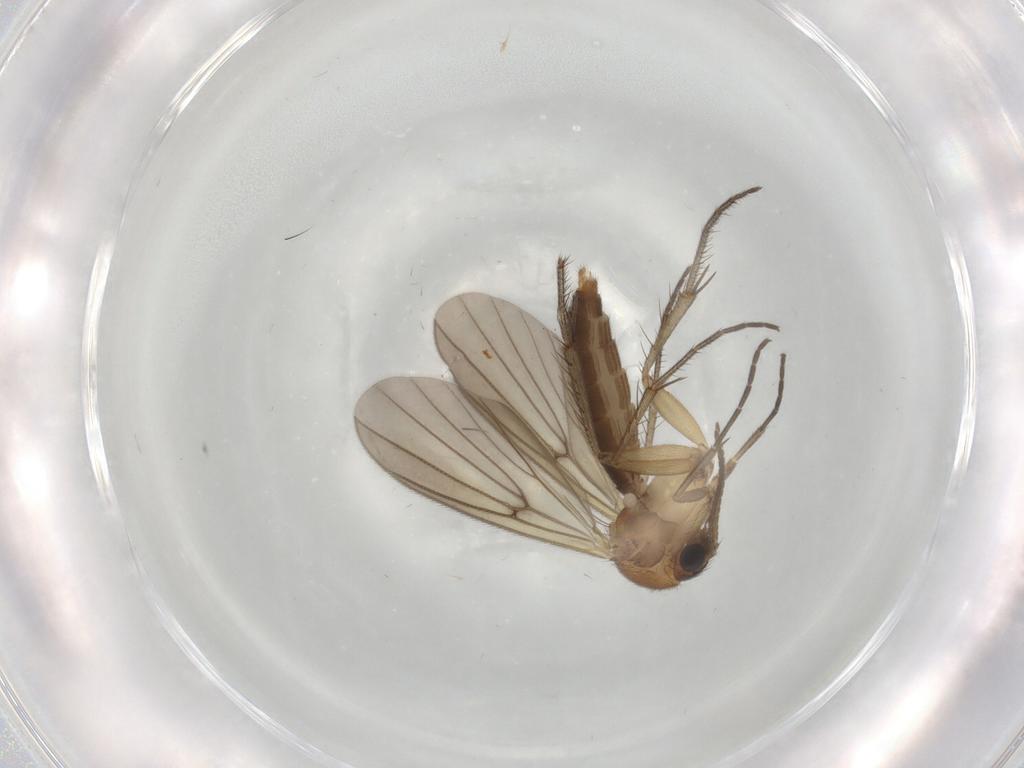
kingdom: Animalia
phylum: Arthropoda
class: Insecta
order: Diptera
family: Mycetophilidae
